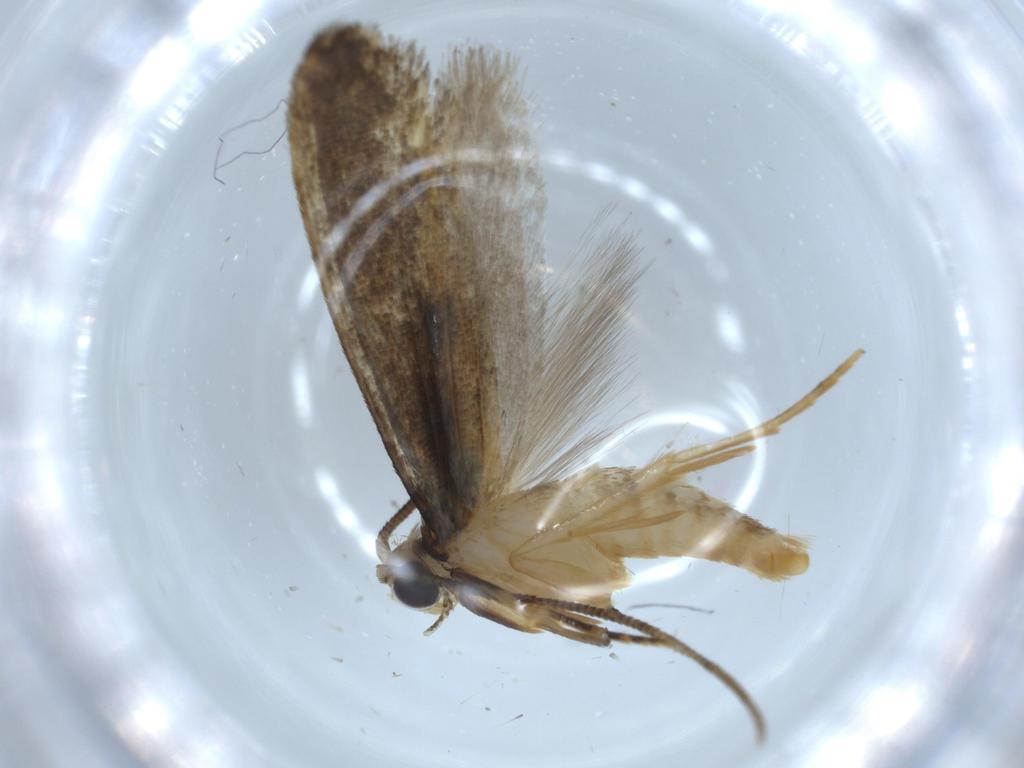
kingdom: Animalia
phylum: Arthropoda
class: Insecta
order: Lepidoptera
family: Tineidae
